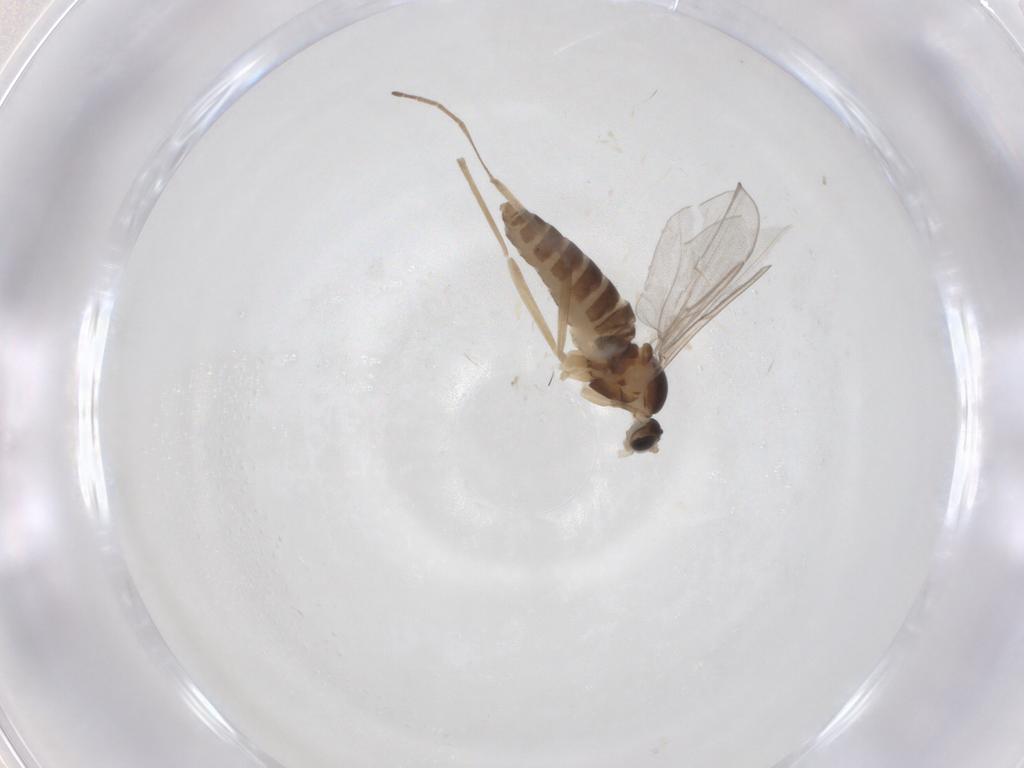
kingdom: Animalia
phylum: Arthropoda
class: Insecta
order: Diptera
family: Cecidomyiidae
